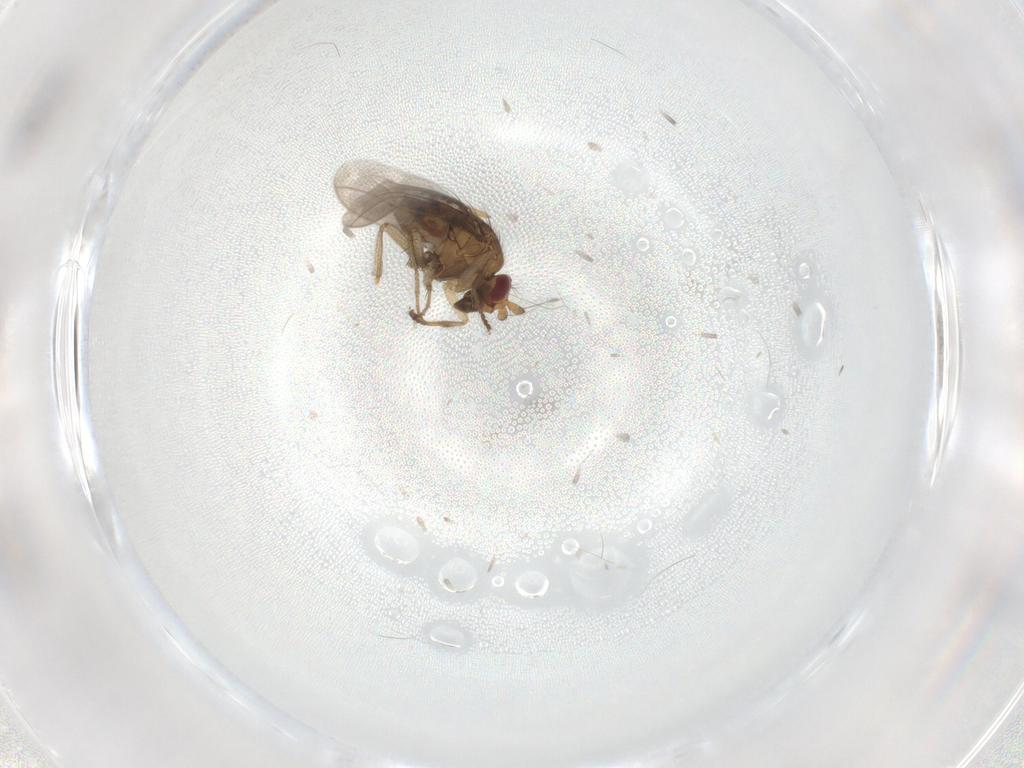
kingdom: Animalia
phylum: Arthropoda
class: Insecta
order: Diptera
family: Sphaeroceridae
